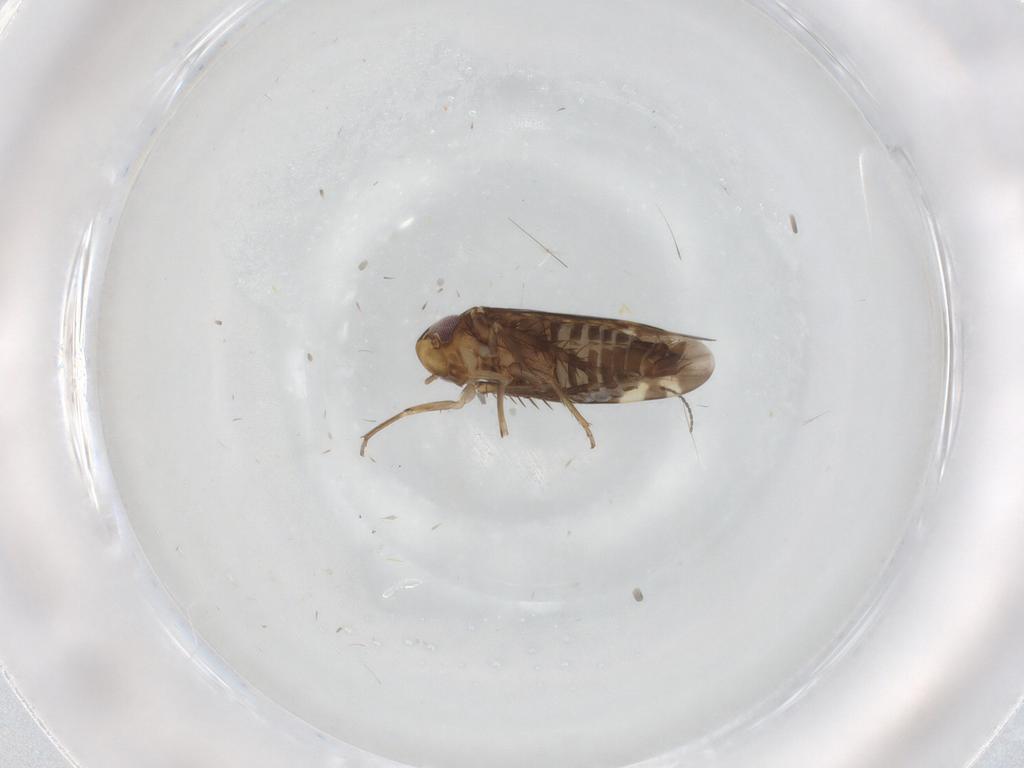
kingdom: Animalia
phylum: Arthropoda
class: Insecta
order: Hemiptera
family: Cicadellidae
